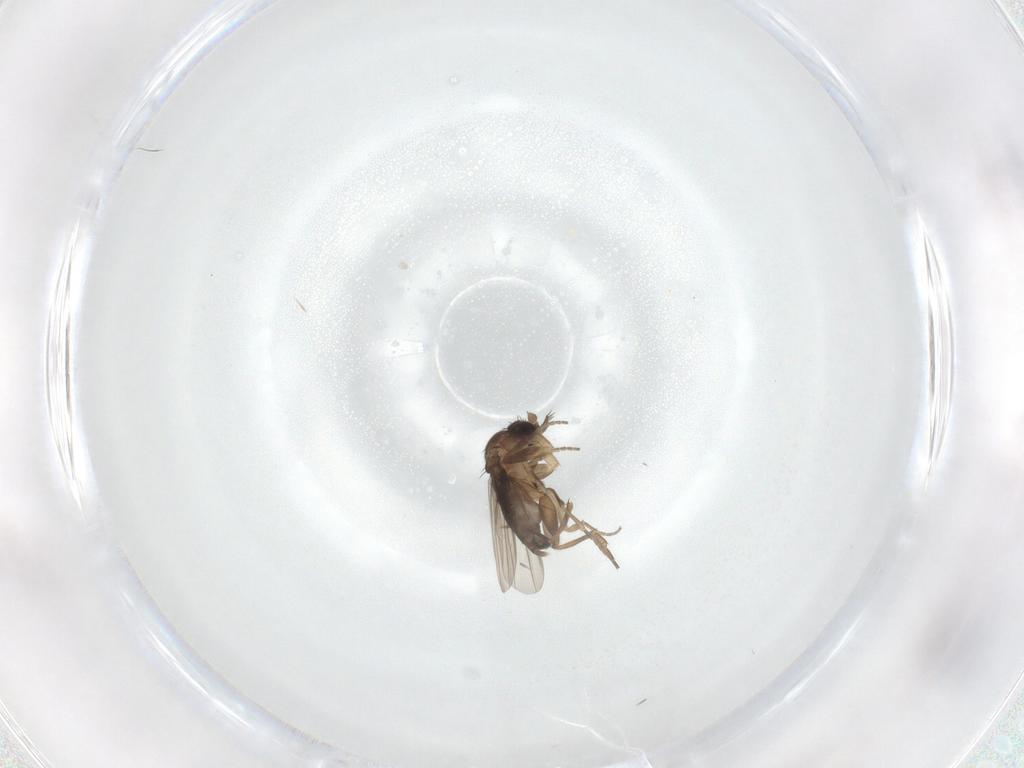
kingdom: Animalia
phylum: Arthropoda
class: Insecta
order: Diptera
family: Phoridae
